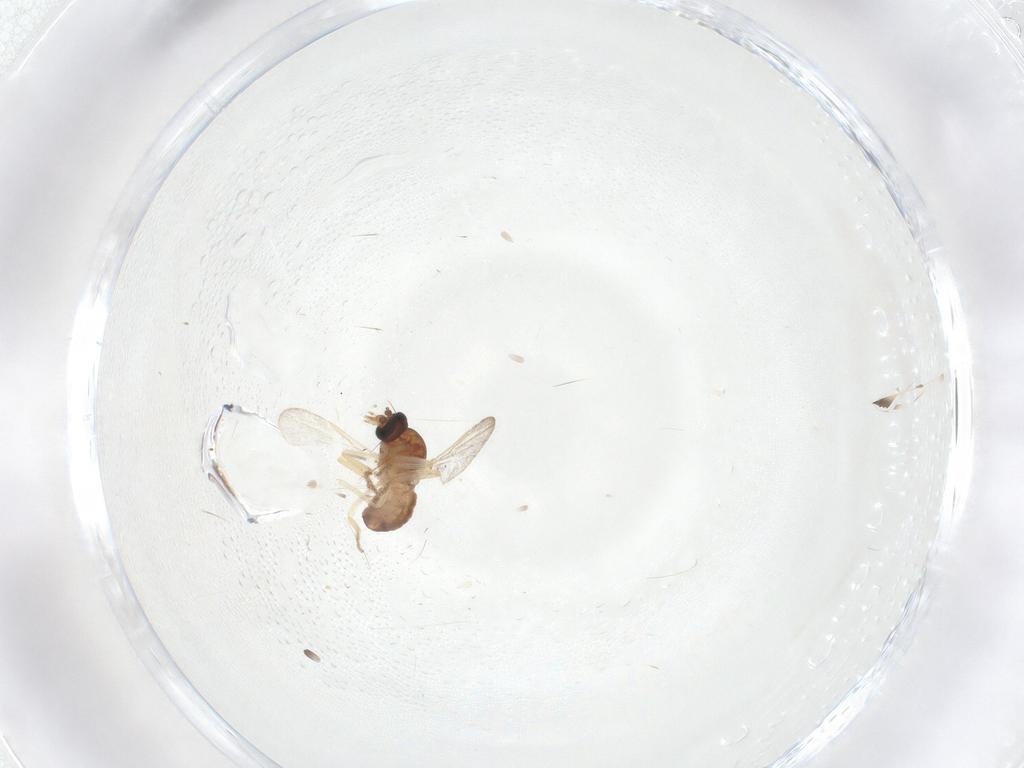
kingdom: Animalia
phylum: Arthropoda
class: Insecta
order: Diptera
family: Ceratopogonidae
